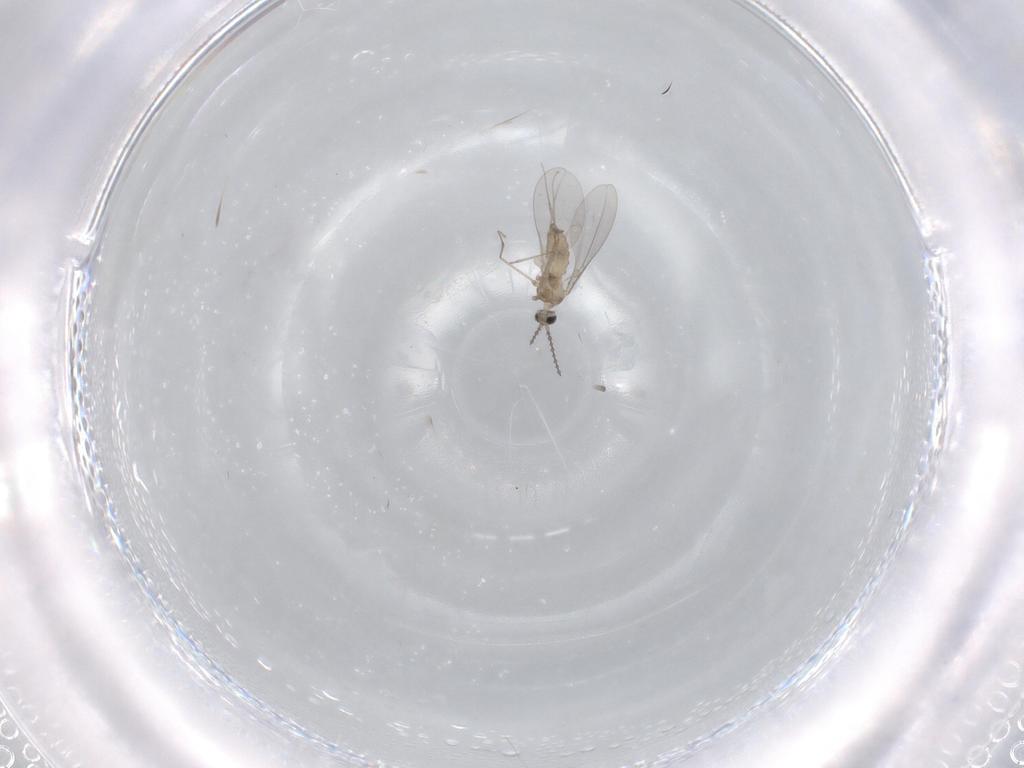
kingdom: Animalia
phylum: Arthropoda
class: Insecta
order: Diptera
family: Cecidomyiidae
